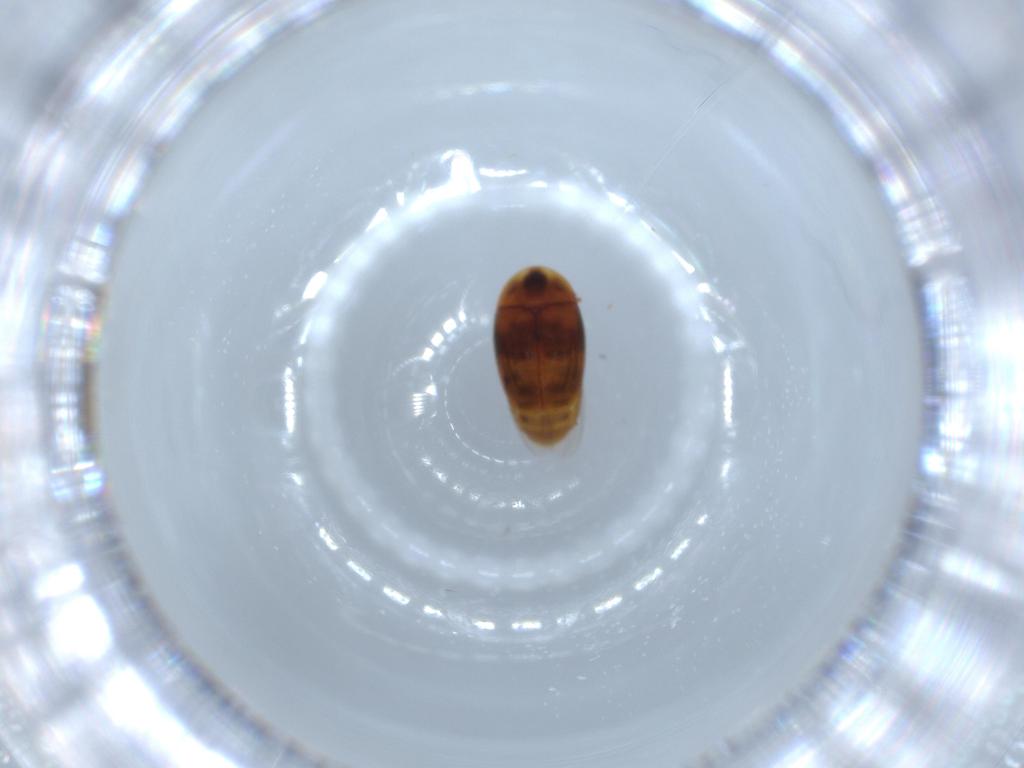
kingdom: Animalia
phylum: Arthropoda
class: Insecta
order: Coleoptera
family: Corylophidae
